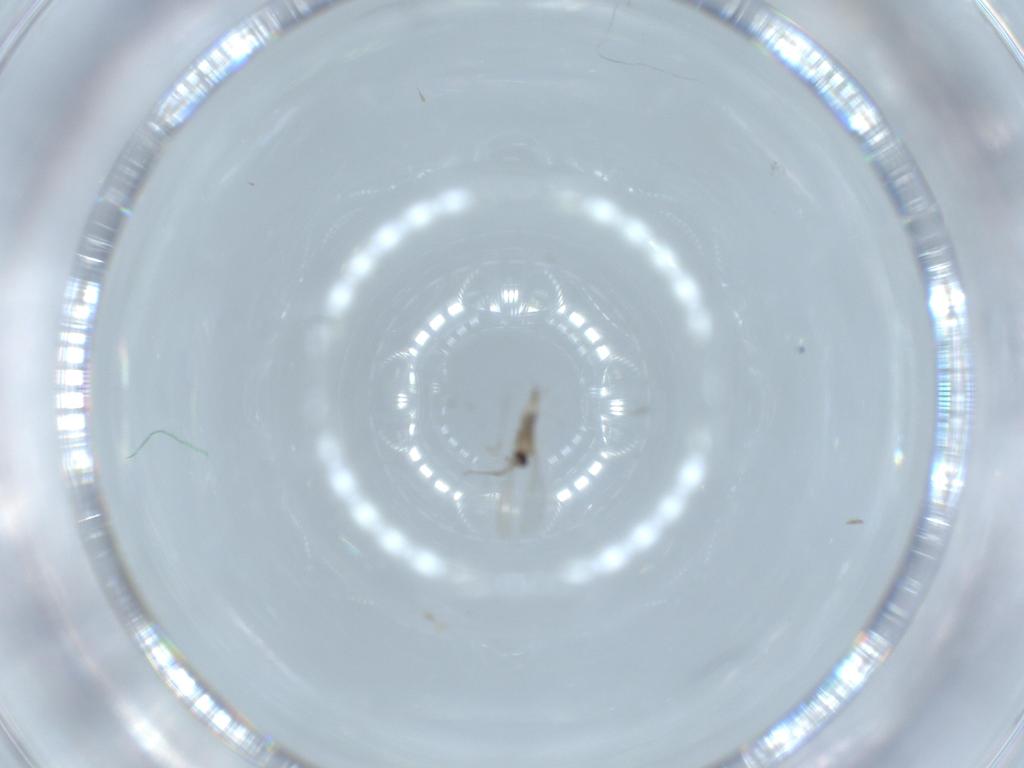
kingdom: Animalia
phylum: Arthropoda
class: Insecta
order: Diptera
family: Cecidomyiidae
